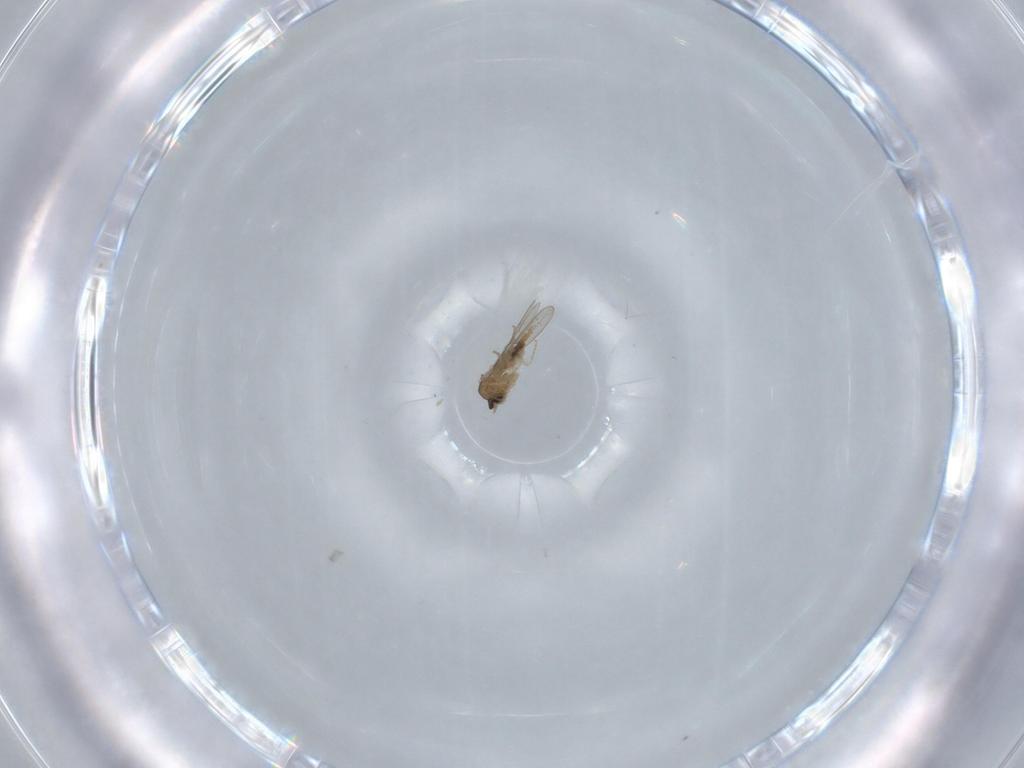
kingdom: Animalia
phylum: Arthropoda
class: Insecta
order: Diptera
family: Cecidomyiidae
